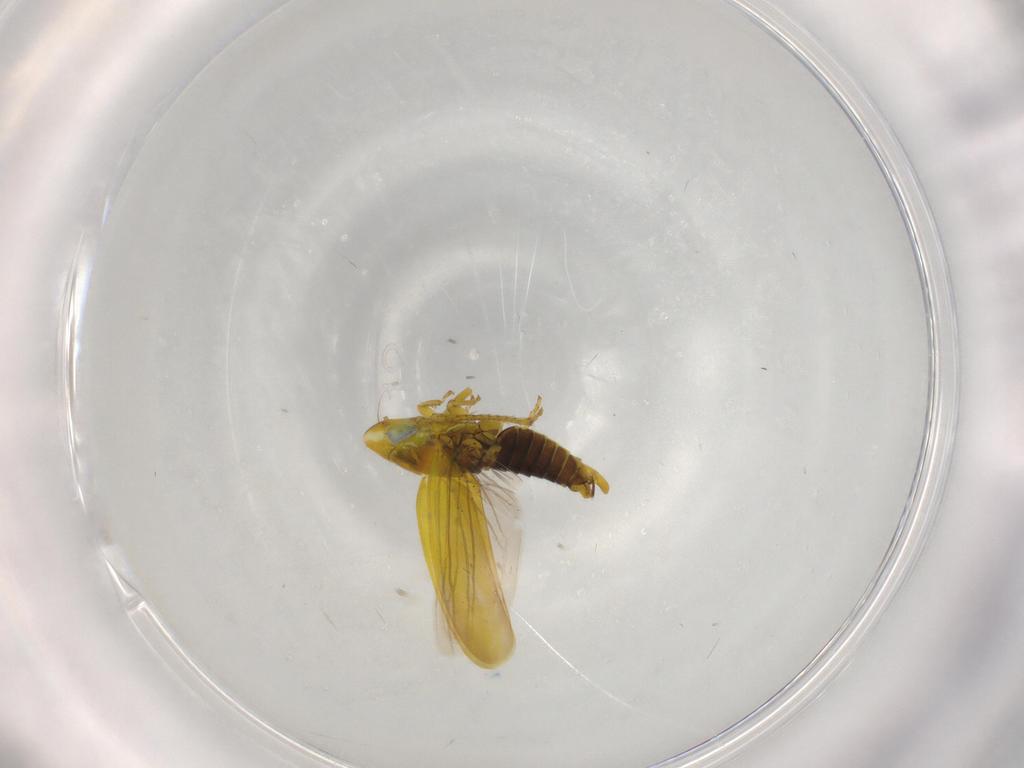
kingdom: Animalia
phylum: Arthropoda
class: Insecta
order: Hemiptera
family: Cicadellidae
